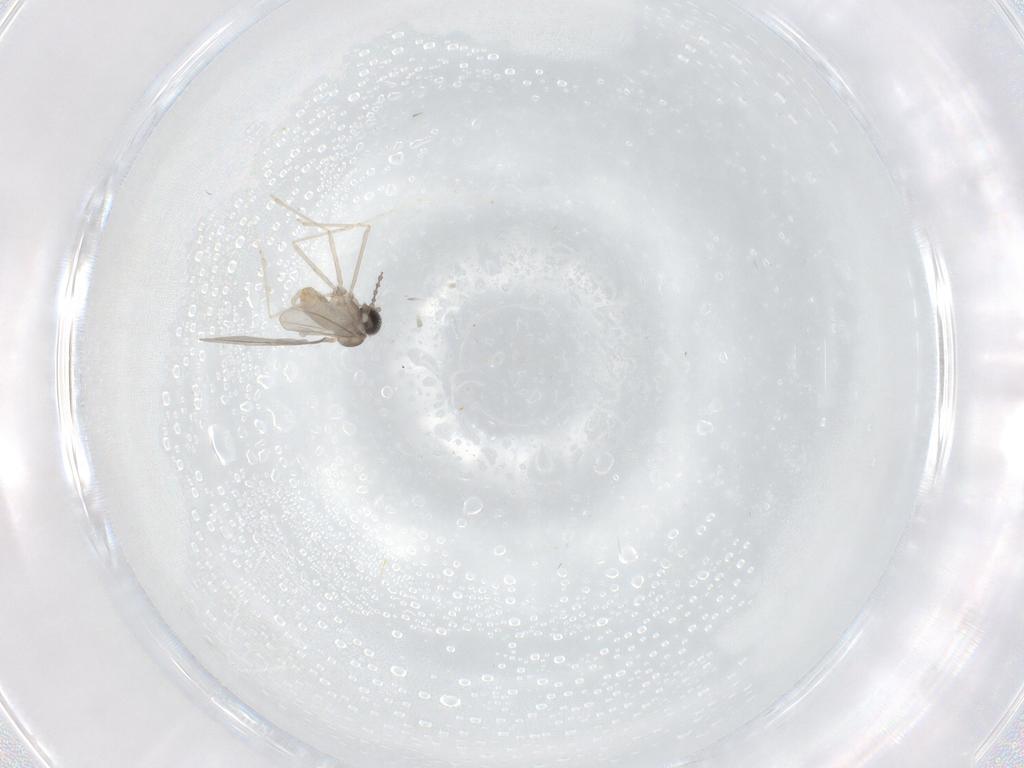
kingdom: Animalia
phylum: Arthropoda
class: Insecta
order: Diptera
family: Cecidomyiidae
